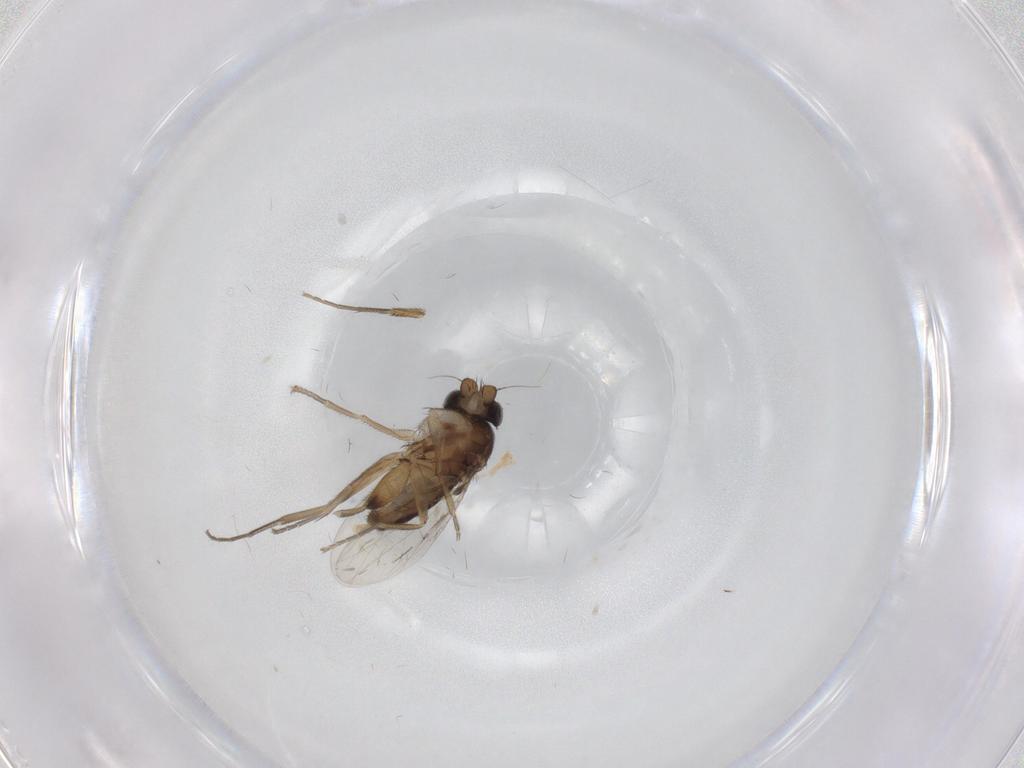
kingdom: Animalia
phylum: Arthropoda
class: Insecta
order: Diptera
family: Phoridae
